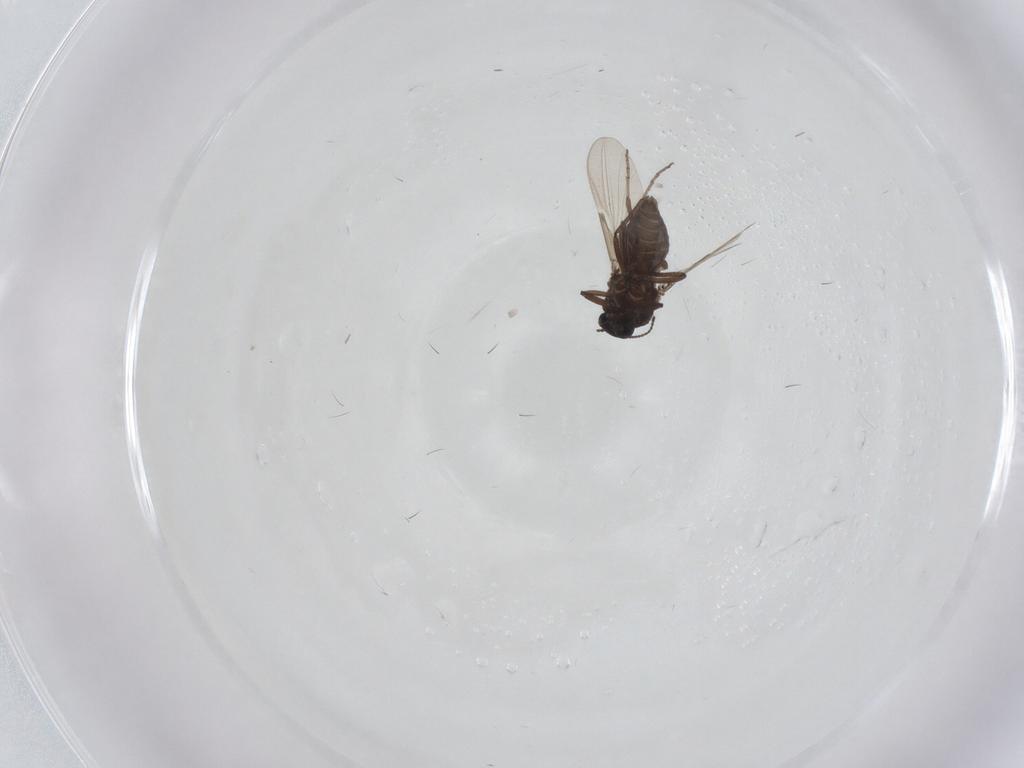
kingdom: Animalia
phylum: Arthropoda
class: Insecta
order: Diptera
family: Ceratopogonidae
